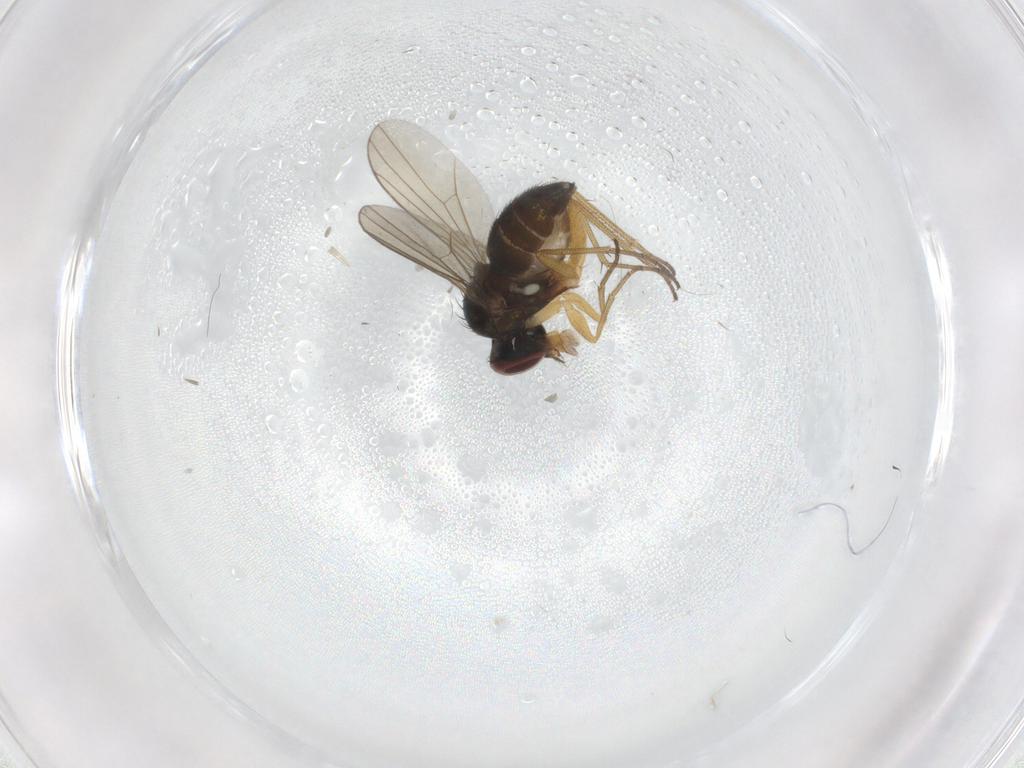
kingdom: Animalia
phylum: Arthropoda
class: Insecta
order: Diptera
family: Dolichopodidae
